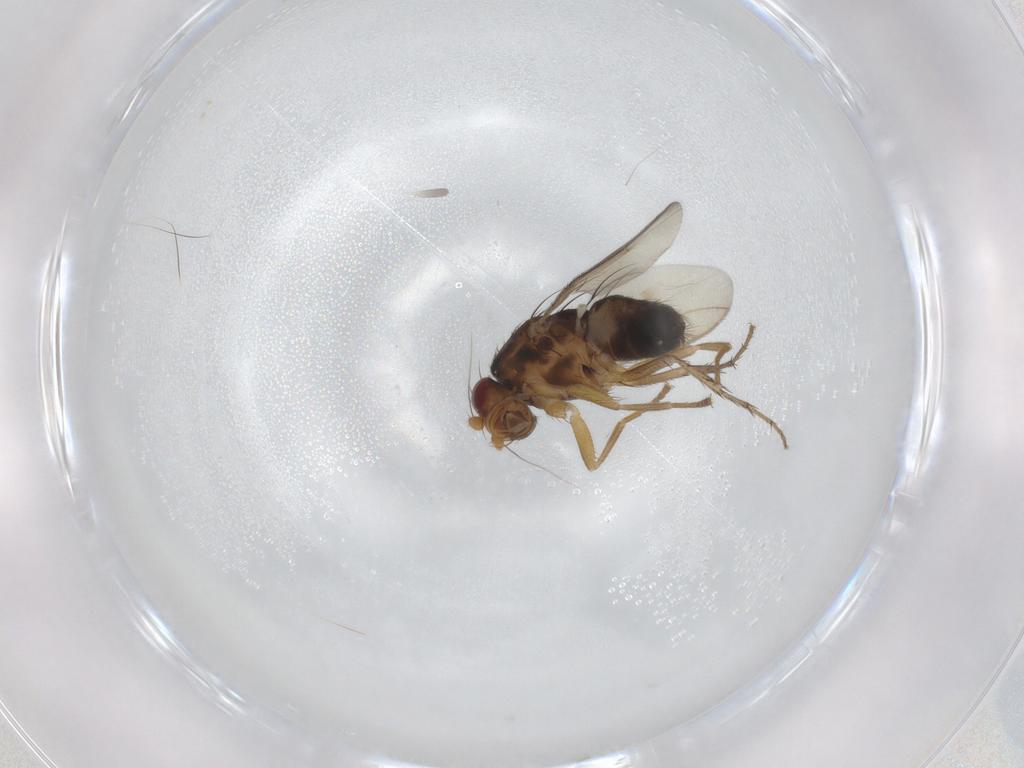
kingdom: Animalia
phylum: Arthropoda
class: Insecta
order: Diptera
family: Sphaeroceridae
